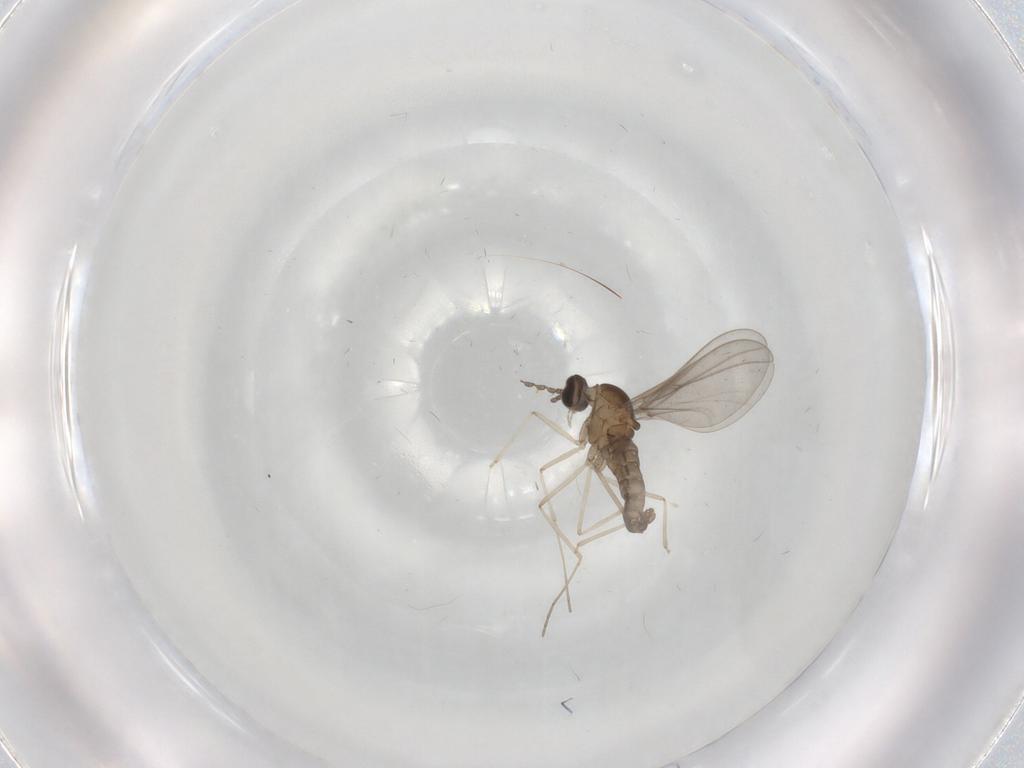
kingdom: Animalia
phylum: Arthropoda
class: Insecta
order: Diptera
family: Cecidomyiidae
